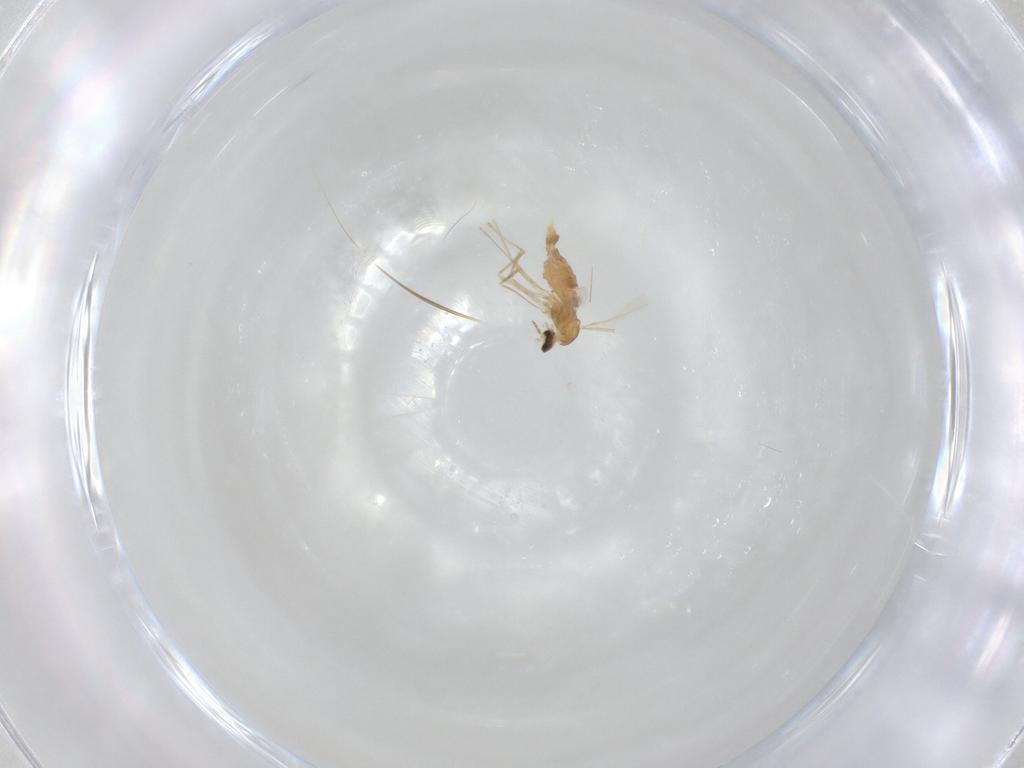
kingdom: Animalia
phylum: Arthropoda
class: Insecta
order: Diptera
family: Cecidomyiidae
